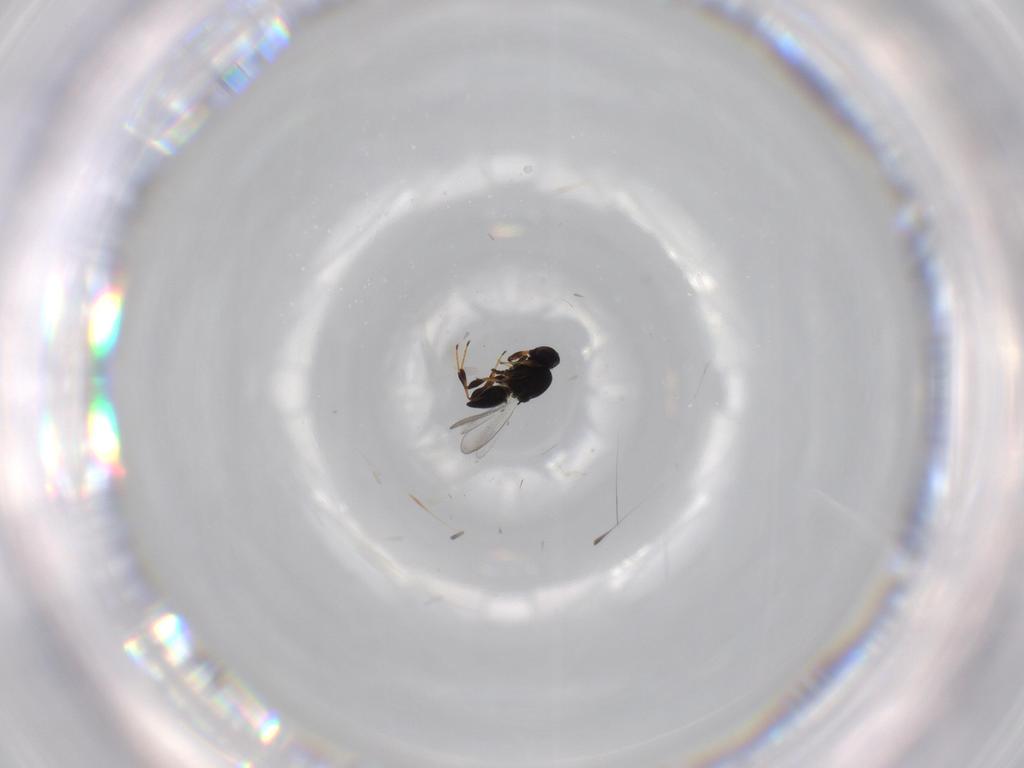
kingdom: Animalia
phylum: Arthropoda
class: Insecta
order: Hymenoptera
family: Platygastridae
